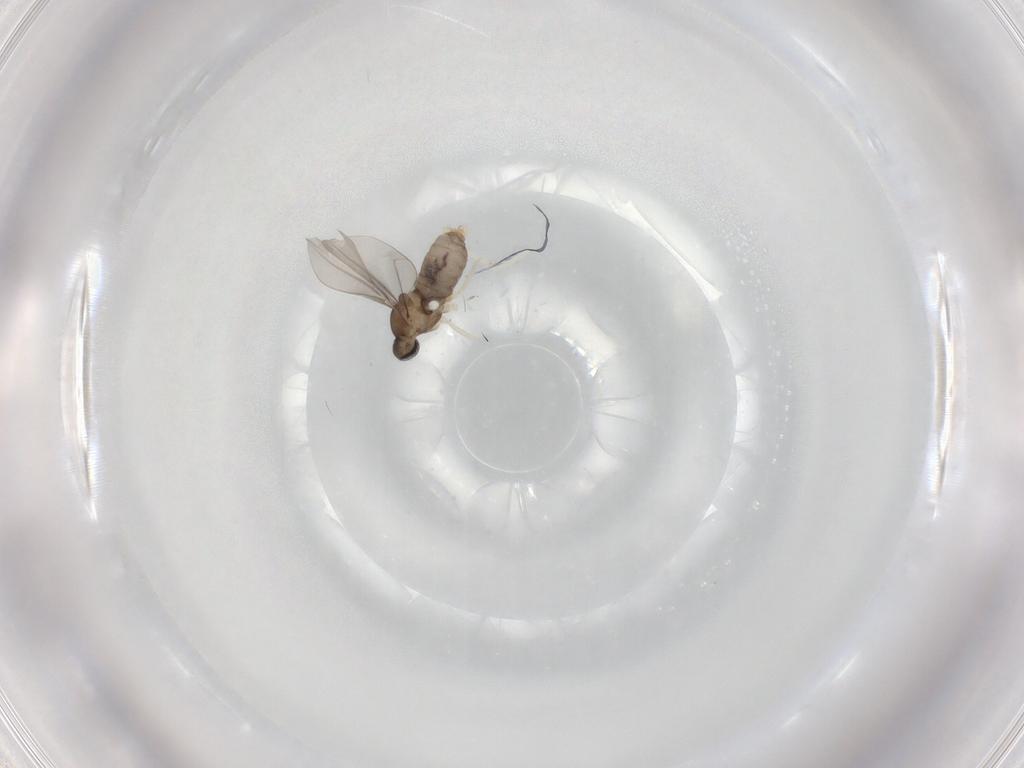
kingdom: Animalia
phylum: Arthropoda
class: Insecta
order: Diptera
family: Cecidomyiidae
